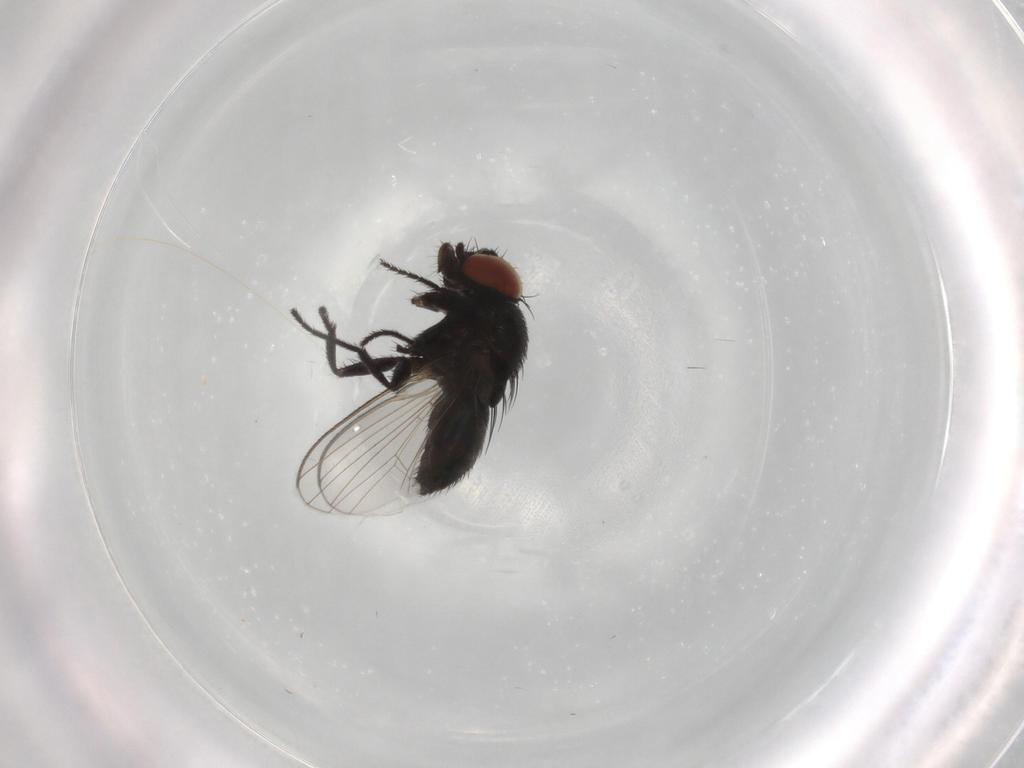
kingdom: Animalia
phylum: Arthropoda
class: Insecta
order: Diptera
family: Milichiidae
